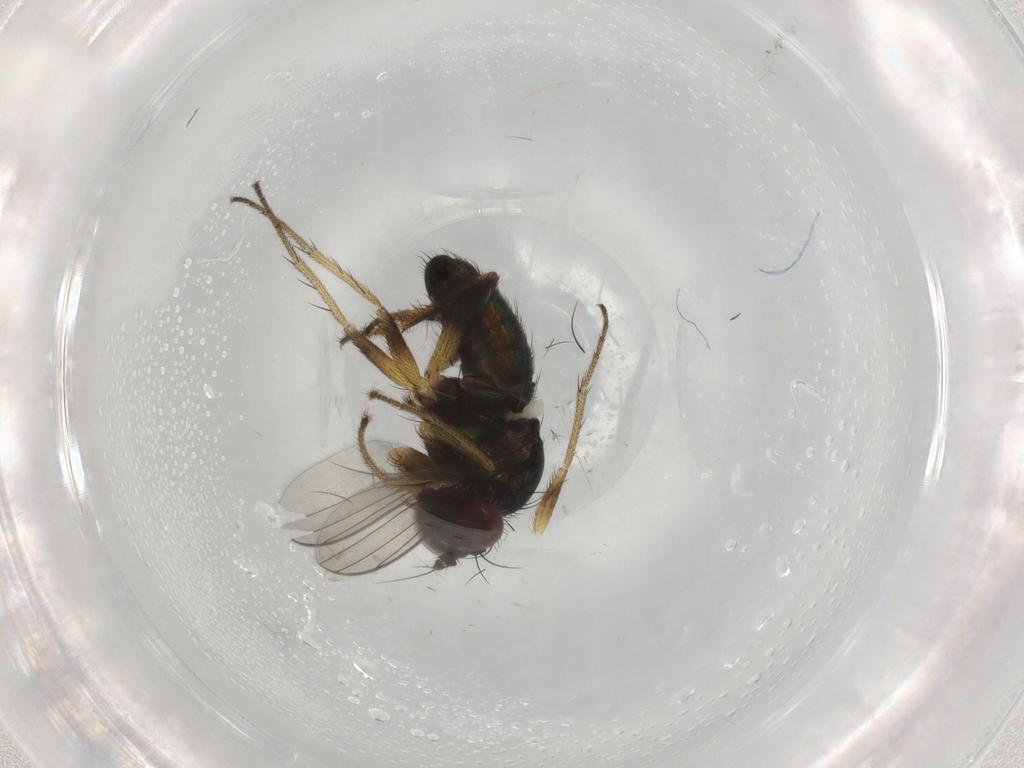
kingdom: Animalia
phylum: Arthropoda
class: Insecta
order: Diptera
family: Dolichopodidae
